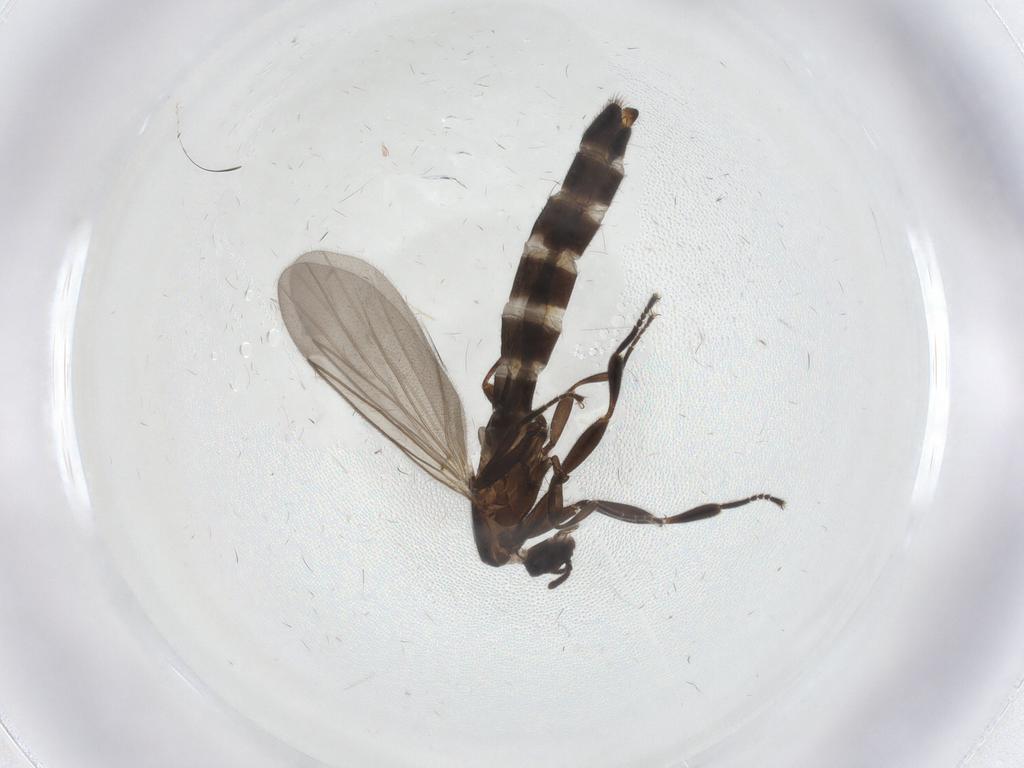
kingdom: Animalia
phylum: Arthropoda
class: Insecta
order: Diptera
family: Scatopsidae
